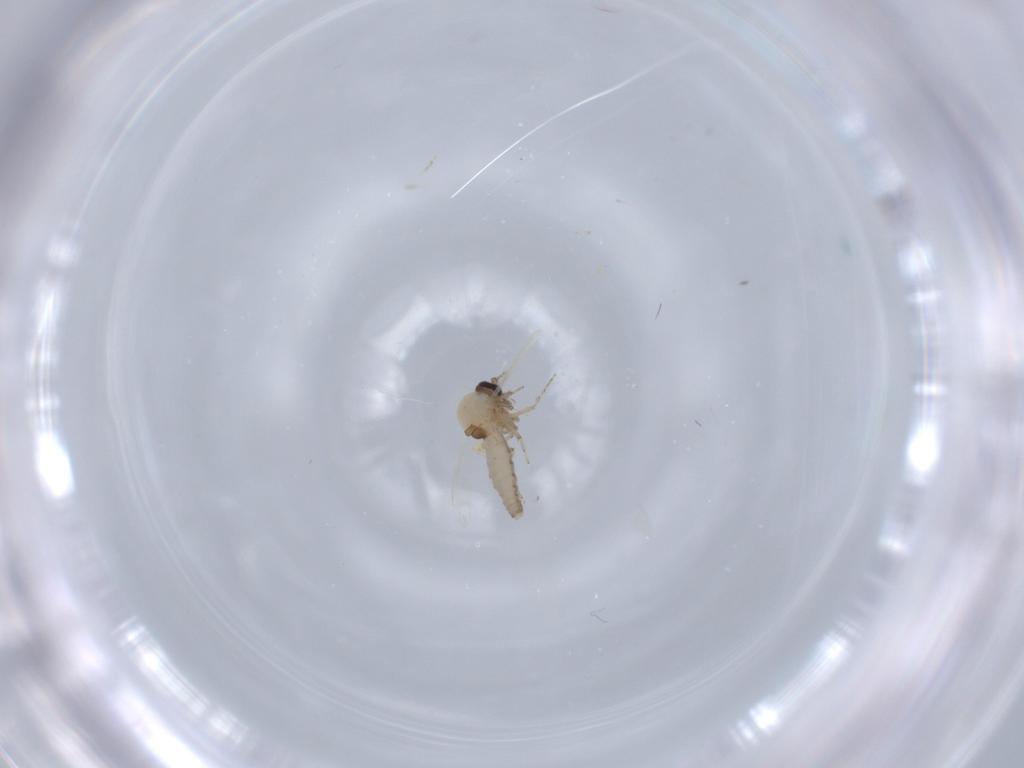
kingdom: Animalia
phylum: Arthropoda
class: Insecta
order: Diptera
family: Ceratopogonidae
